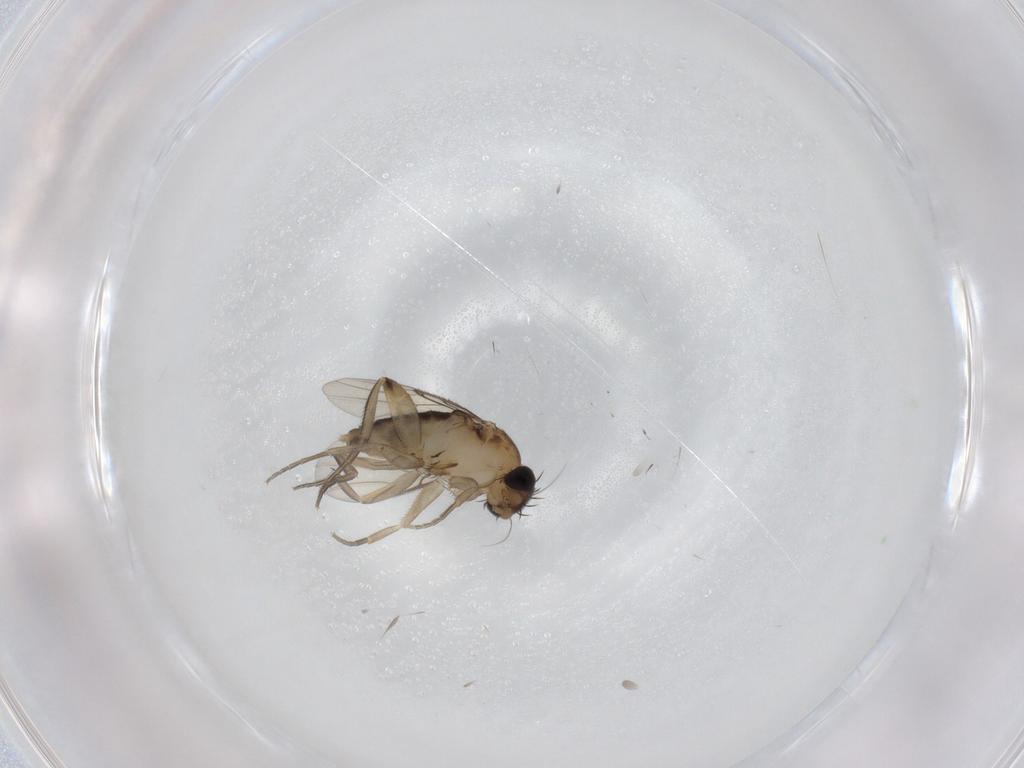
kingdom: Animalia
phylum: Arthropoda
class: Insecta
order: Diptera
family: Phoridae
